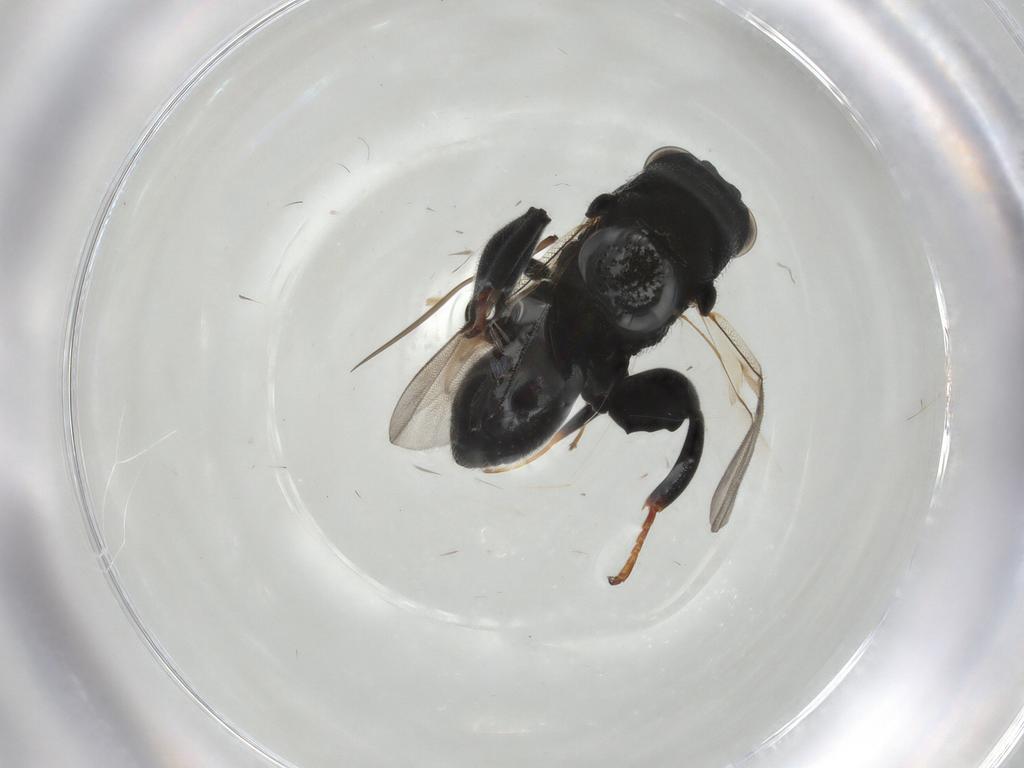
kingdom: Animalia
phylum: Arthropoda
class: Insecta
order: Hymenoptera
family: Chalcididae
